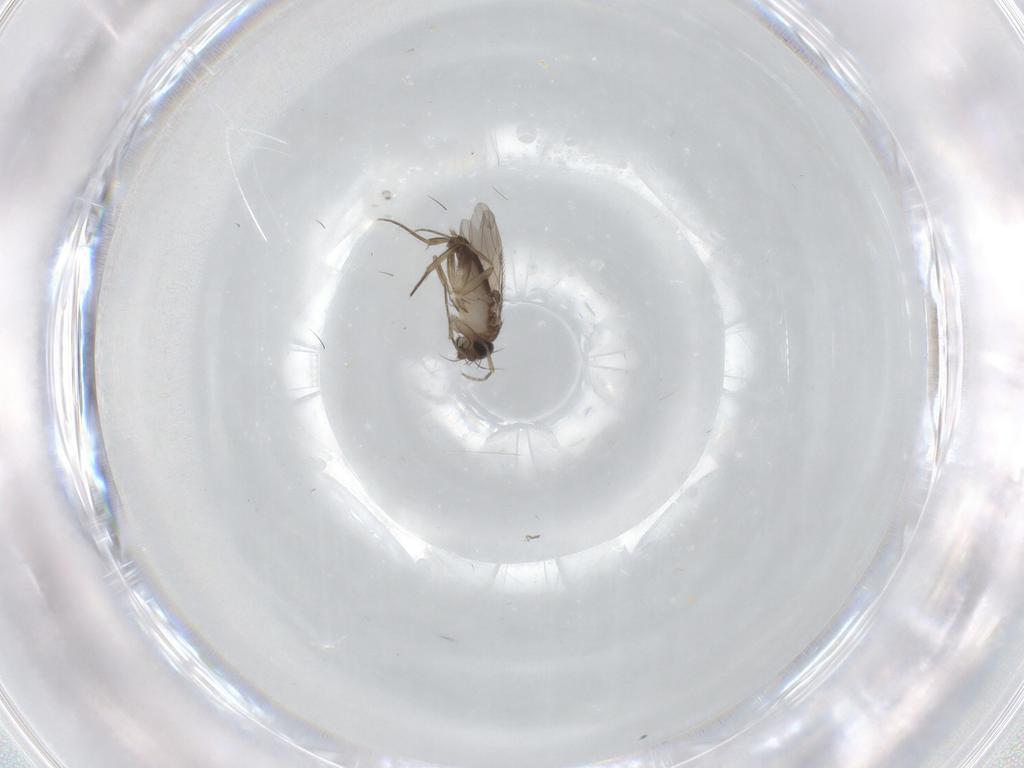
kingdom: Animalia
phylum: Arthropoda
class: Insecta
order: Diptera
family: Phoridae
